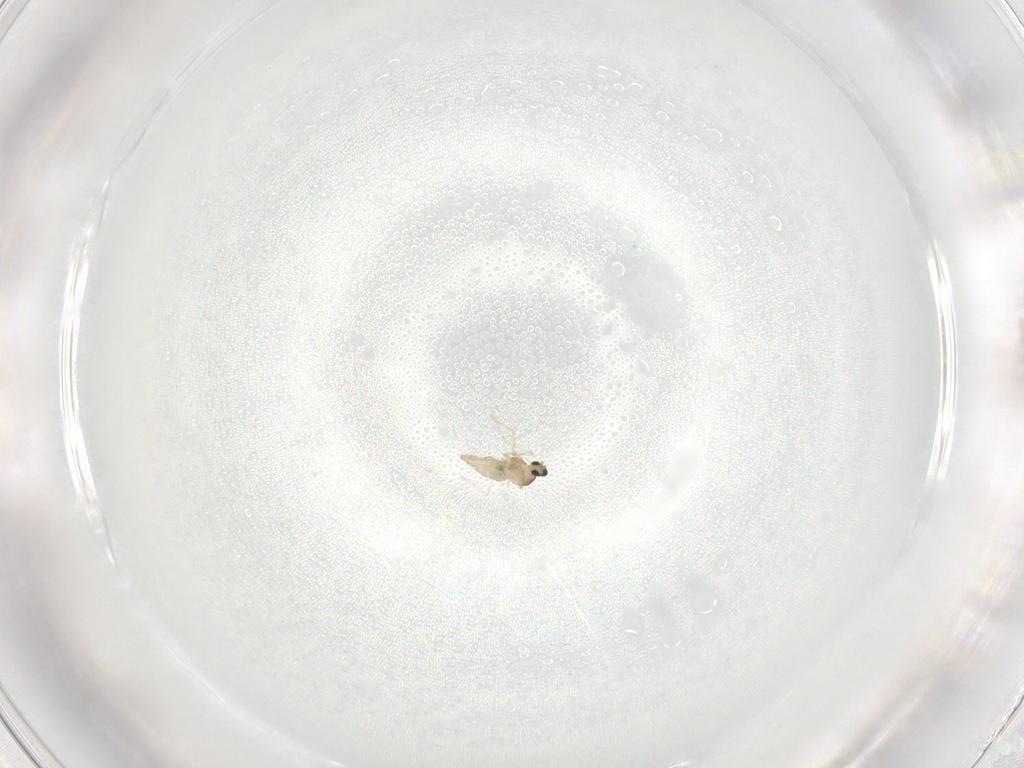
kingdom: Animalia
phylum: Arthropoda
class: Insecta
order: Diptera
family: Cecidomyiidae
